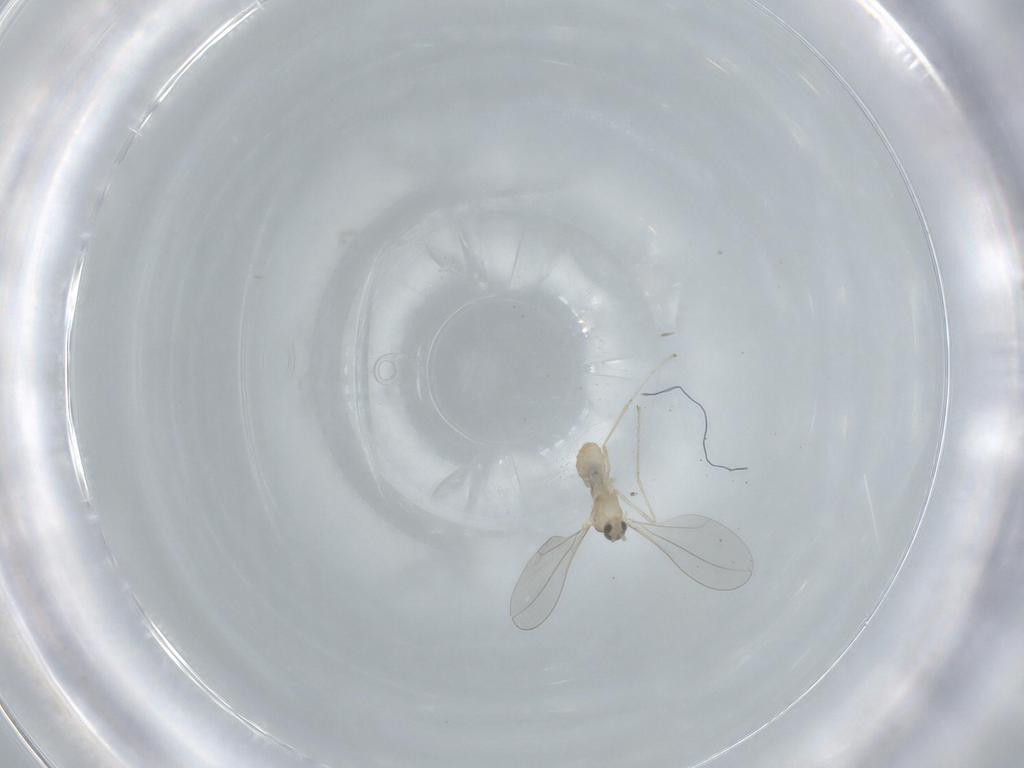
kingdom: Animalia
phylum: Arthropoda
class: Insecta
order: Diptera
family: Cecidomyiidae
